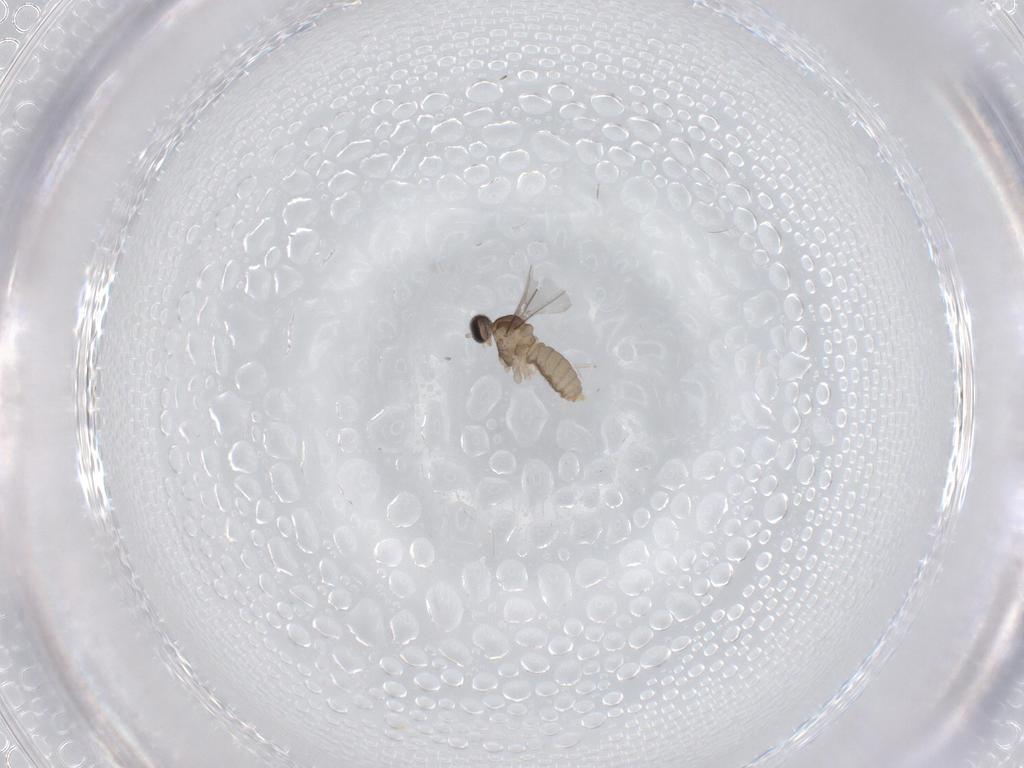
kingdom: Animalia
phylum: Arthropoda
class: Insecta
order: Diptera
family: Cecidomyiidae
